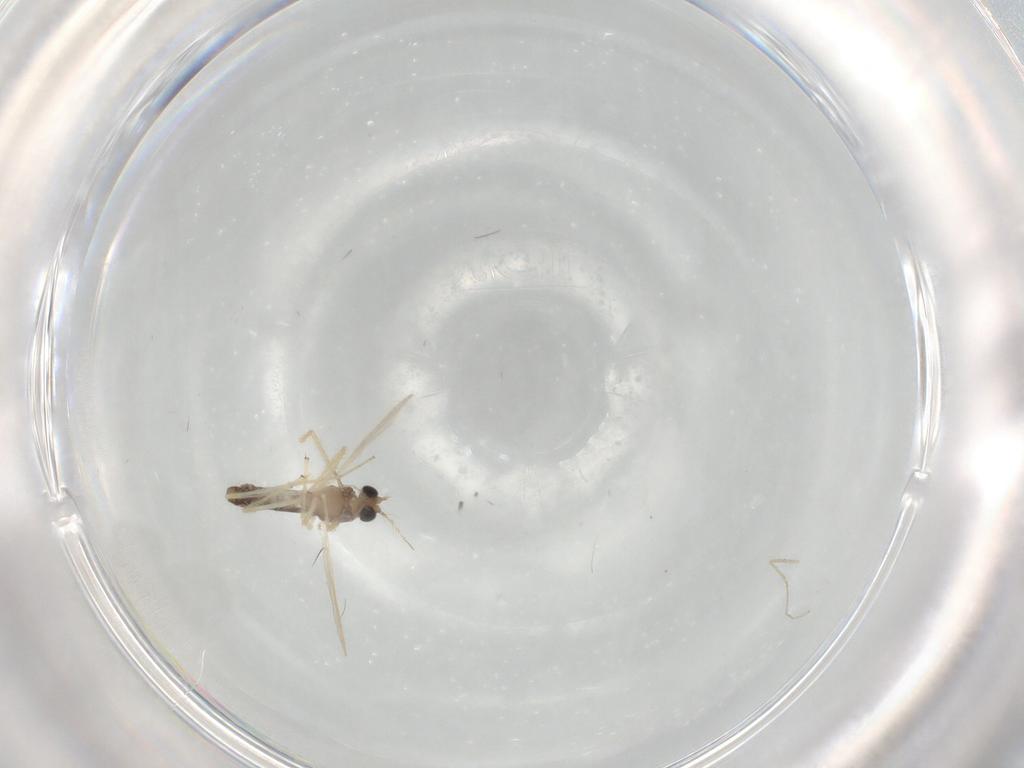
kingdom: Animalia
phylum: Arthropoda
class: Insecta
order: Diptera
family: Chironomidae
